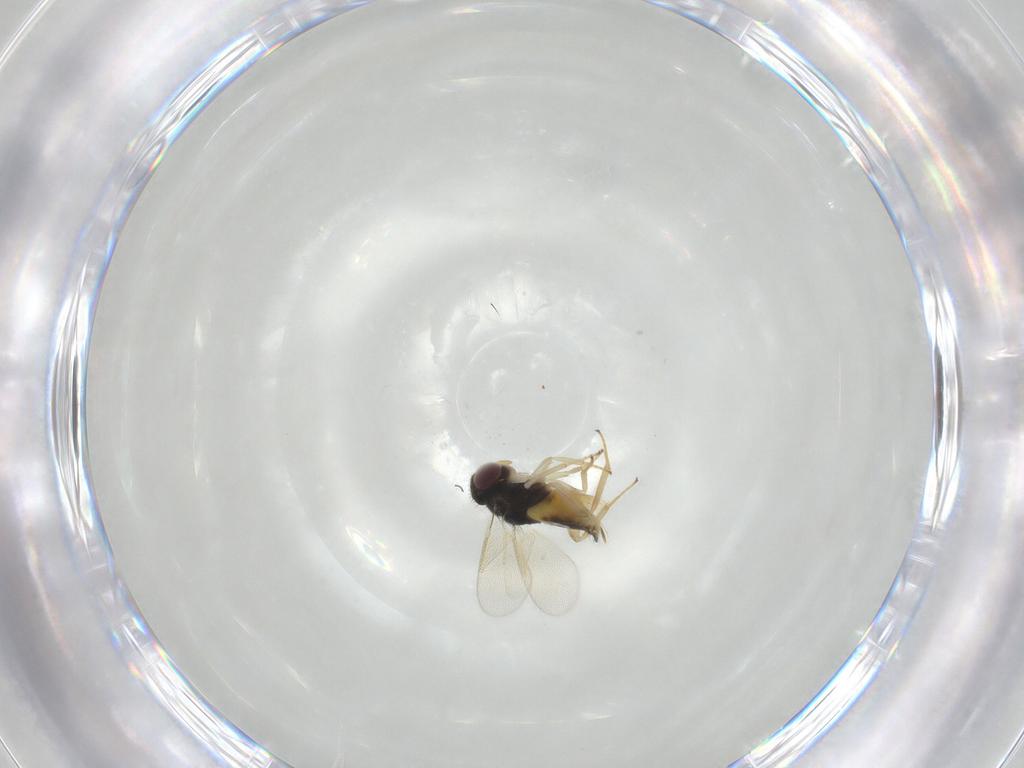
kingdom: Animalia
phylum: Arthropoda
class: Insecta
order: Hymenoptera
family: Aphelinidae
